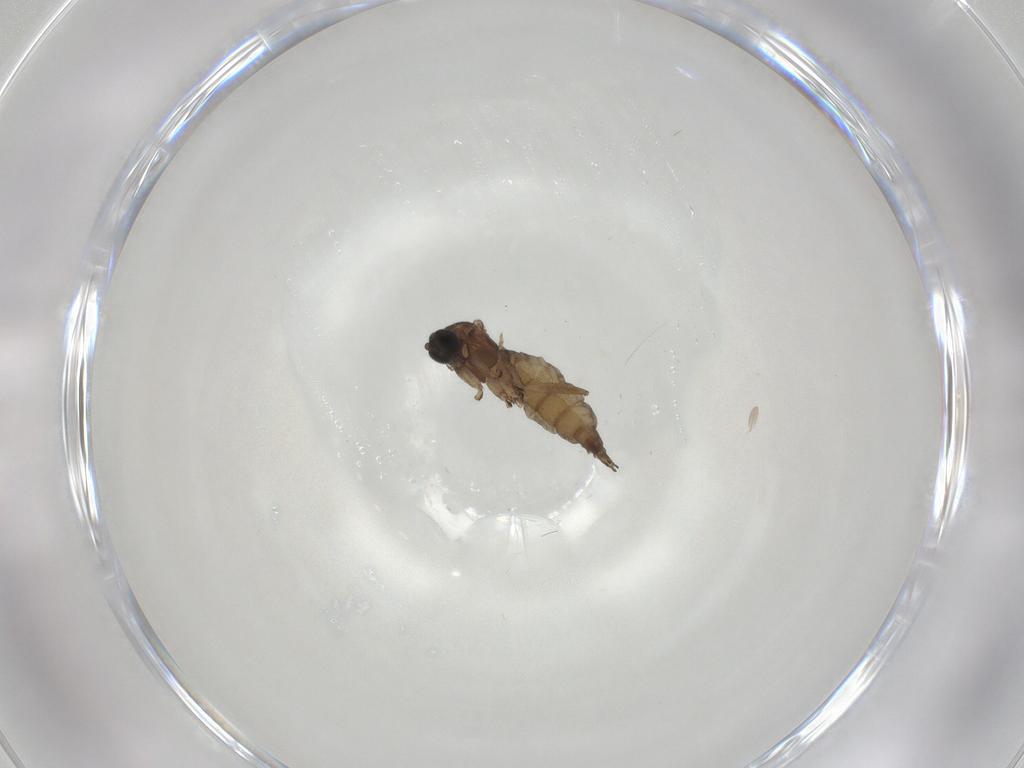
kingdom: Animalia
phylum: Arthropoda
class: Insecta
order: Diptera
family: Sciaridae
